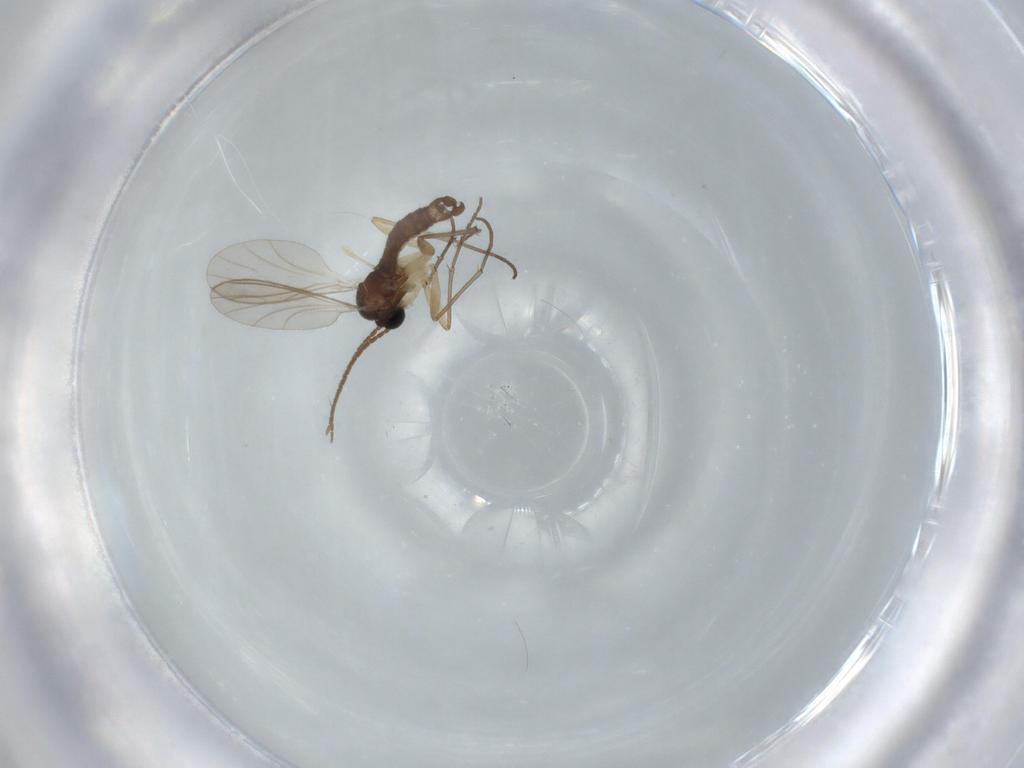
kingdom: Animalia
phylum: Arthropoda
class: Insecta
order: Diptera
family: Sciaridae
